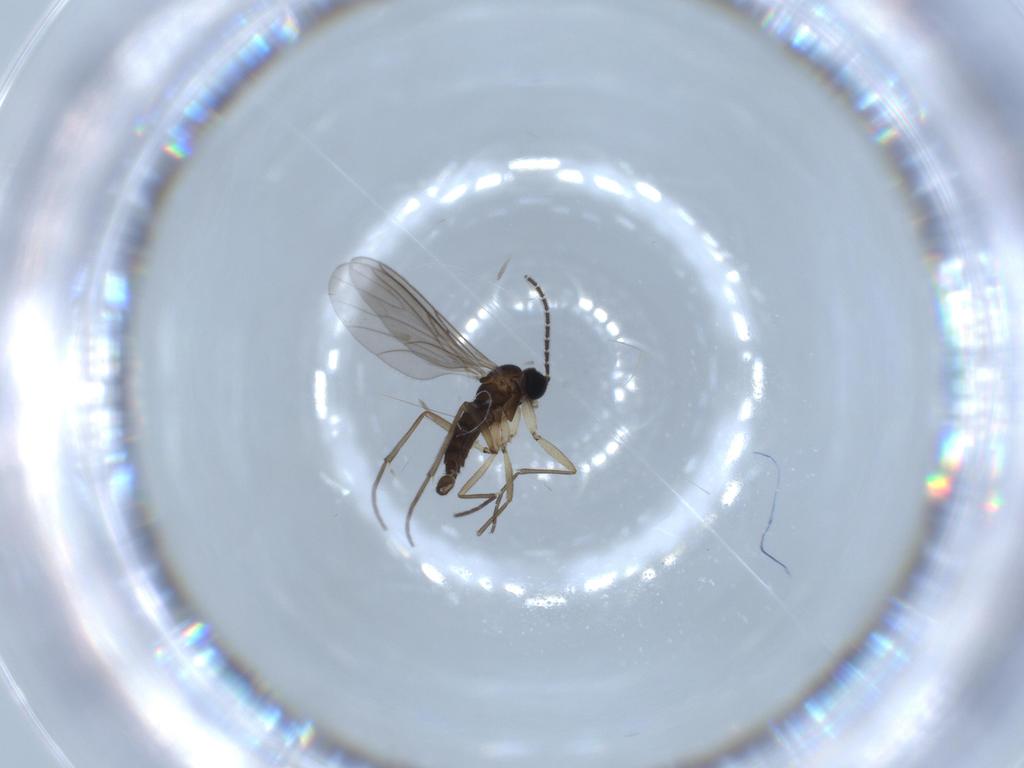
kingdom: Animalia
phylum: Arthropoda
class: Insecta
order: Diptera
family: Sciaridae
